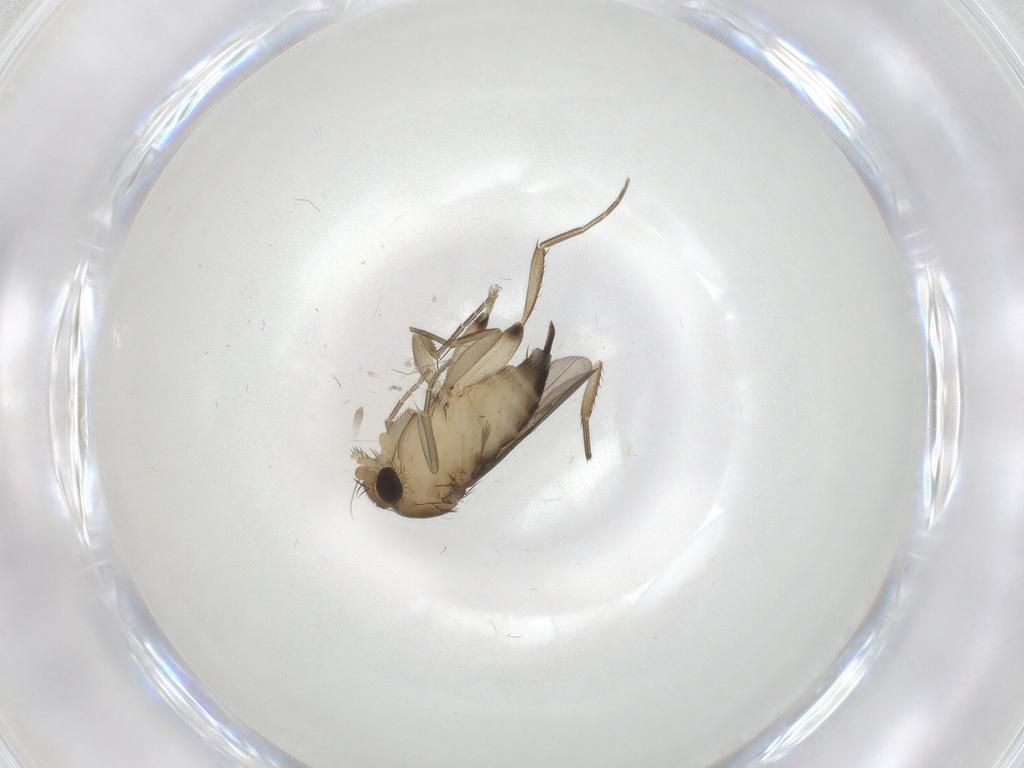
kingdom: Animalia
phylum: Arthropoda
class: Insecta
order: Diptera
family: Phoridae
